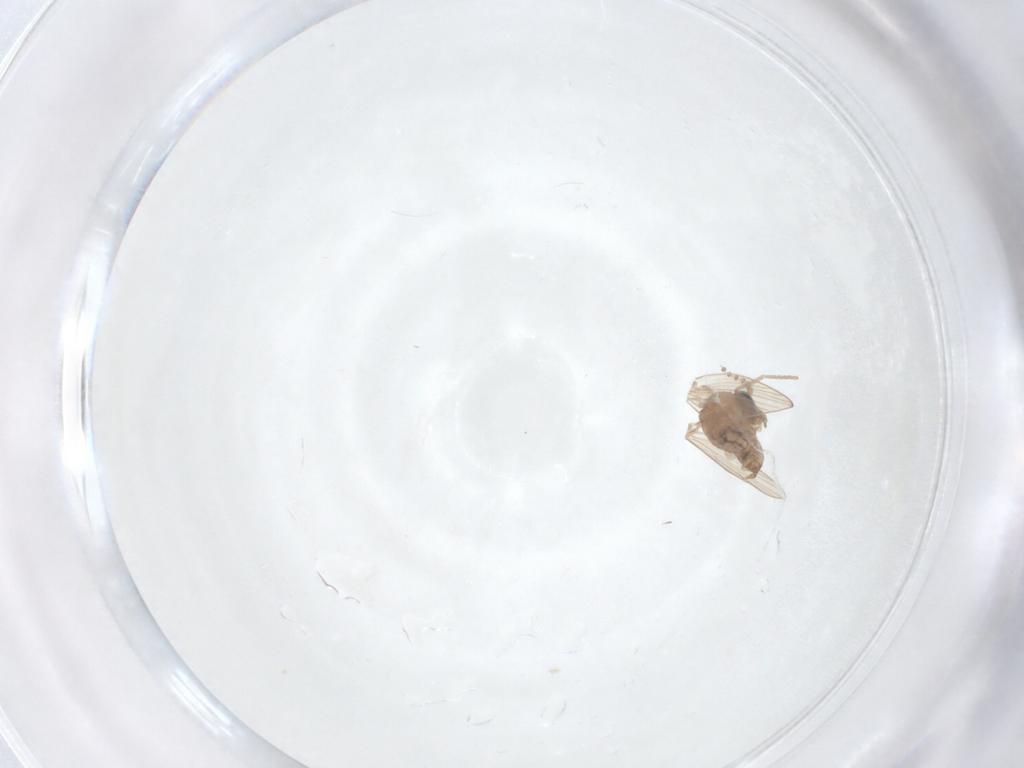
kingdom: Animalia
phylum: Arthropoda
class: Insecta
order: Diptera
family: Psychodidae
